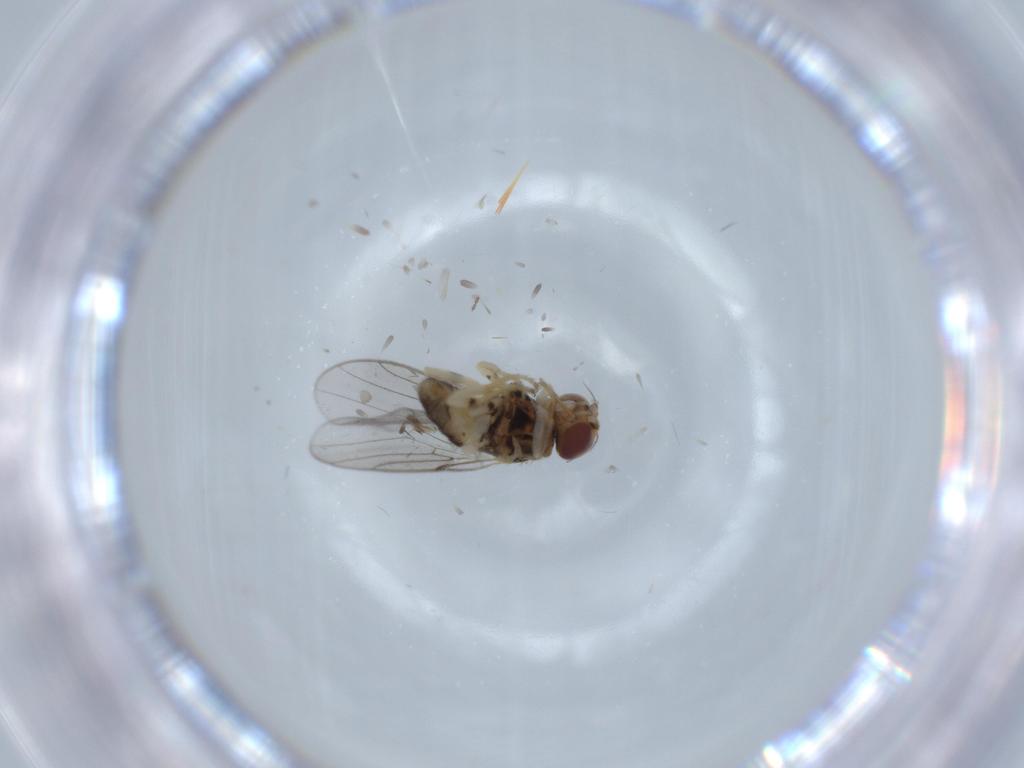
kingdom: Animalia
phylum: Arthropoda
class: Insecta
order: Diptera
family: Chloropidae
